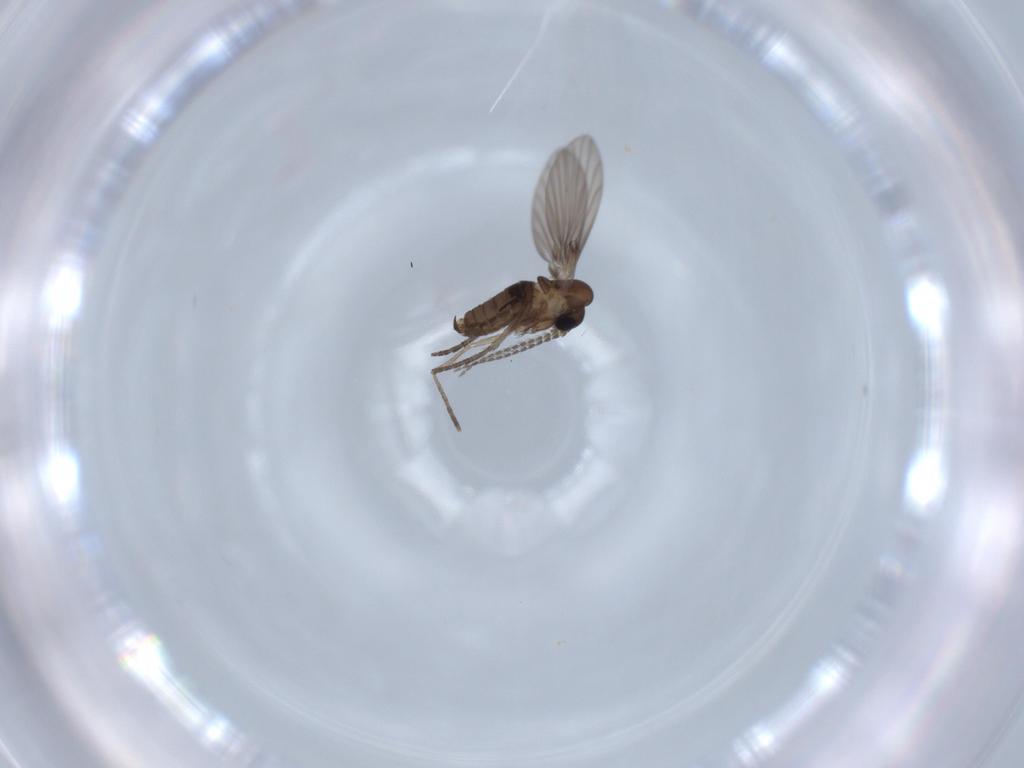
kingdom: Animalia
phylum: Arthropoda
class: Insecta
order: Diptera
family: Psychodidae
